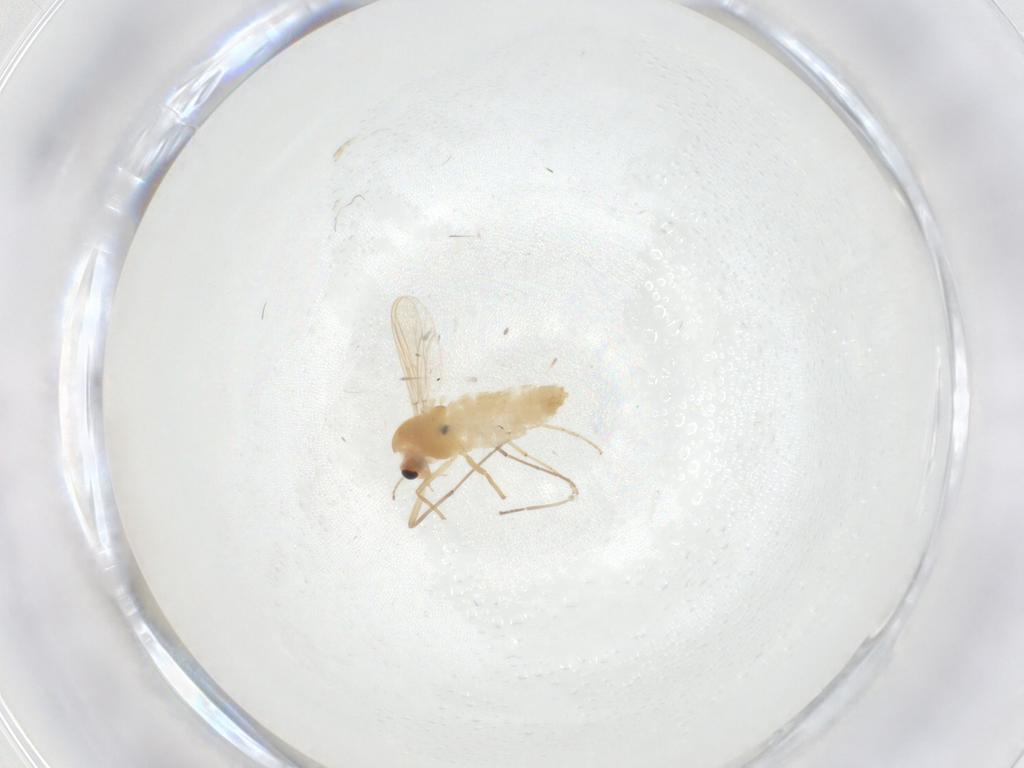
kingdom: Animalia
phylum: Arthropoda
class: Insecta
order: Diptera
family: Chironomidae
